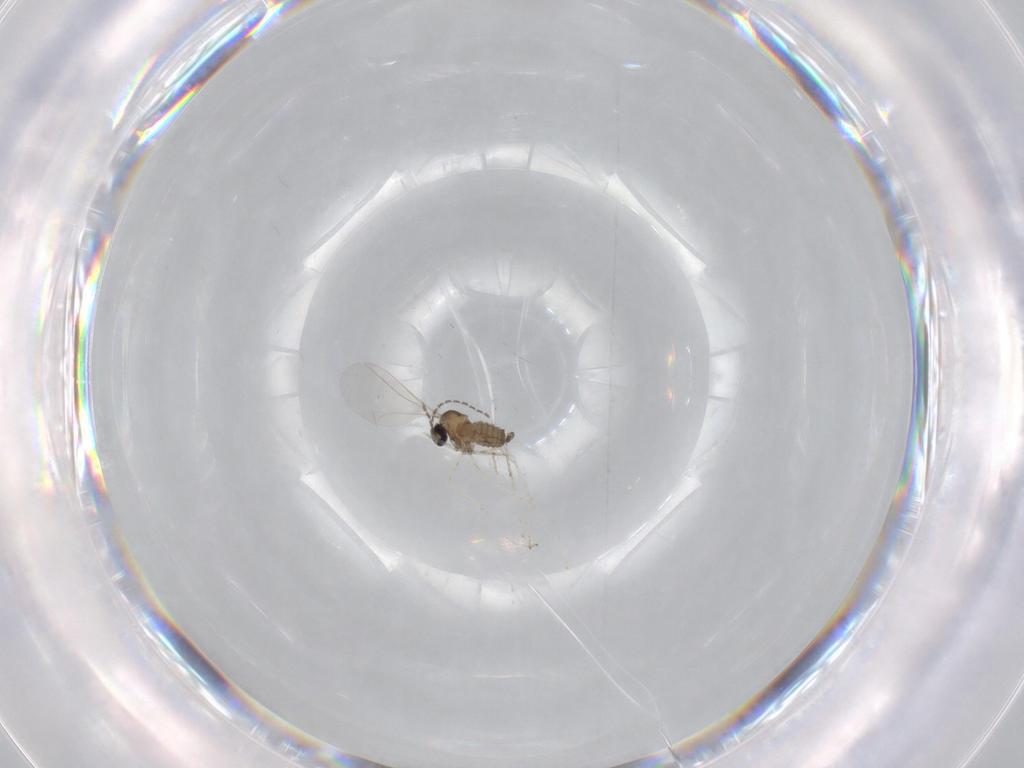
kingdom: Animalia
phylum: Arthropoda
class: Insecta
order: Diptera
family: Cecidomyiidae
